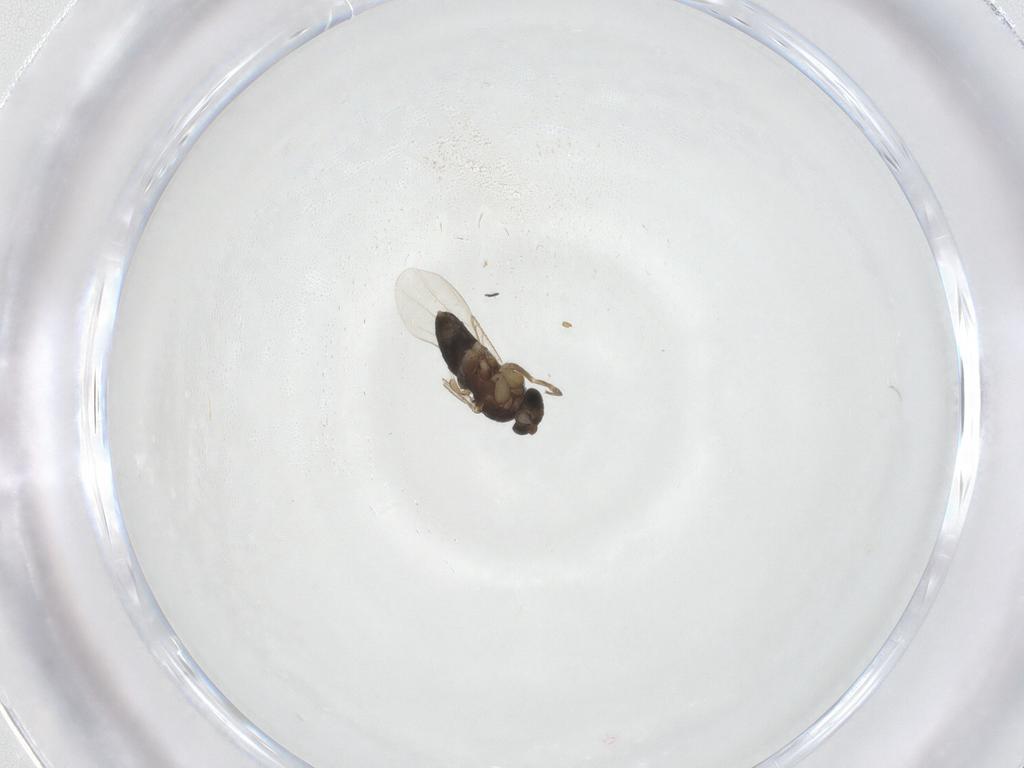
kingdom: Animalia
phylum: Arthropoda
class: Insecta
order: Diptera
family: Phoridae
